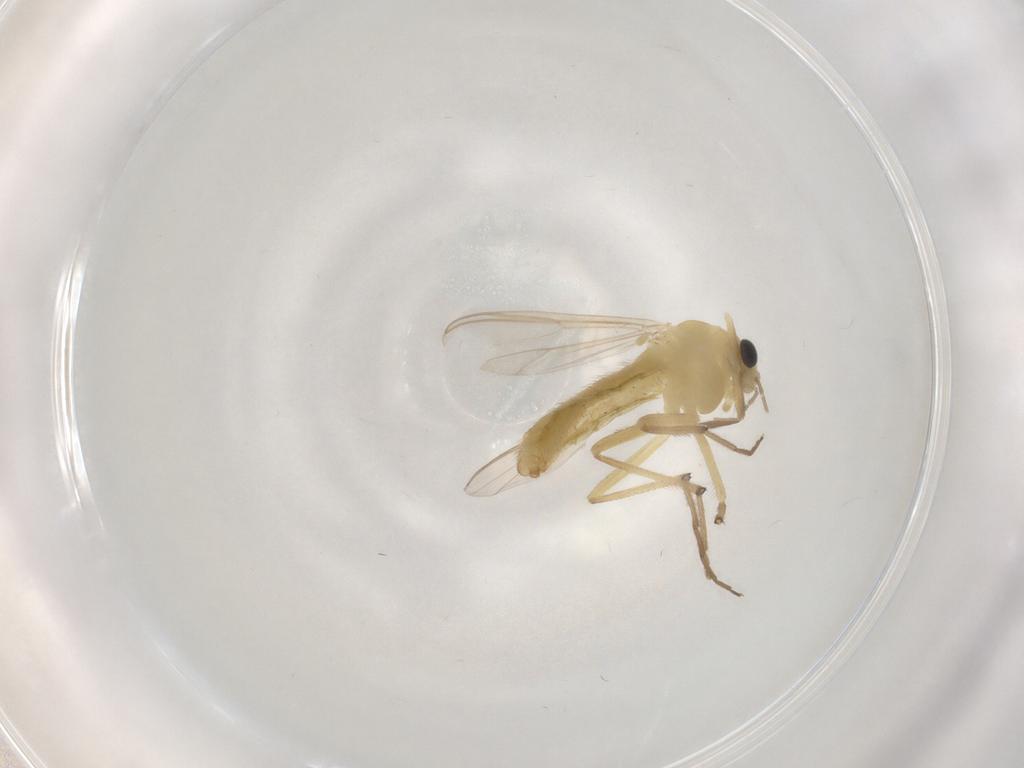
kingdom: Animalia
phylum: Arthropoda
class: Insecta
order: Diptera
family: Chironomidae
